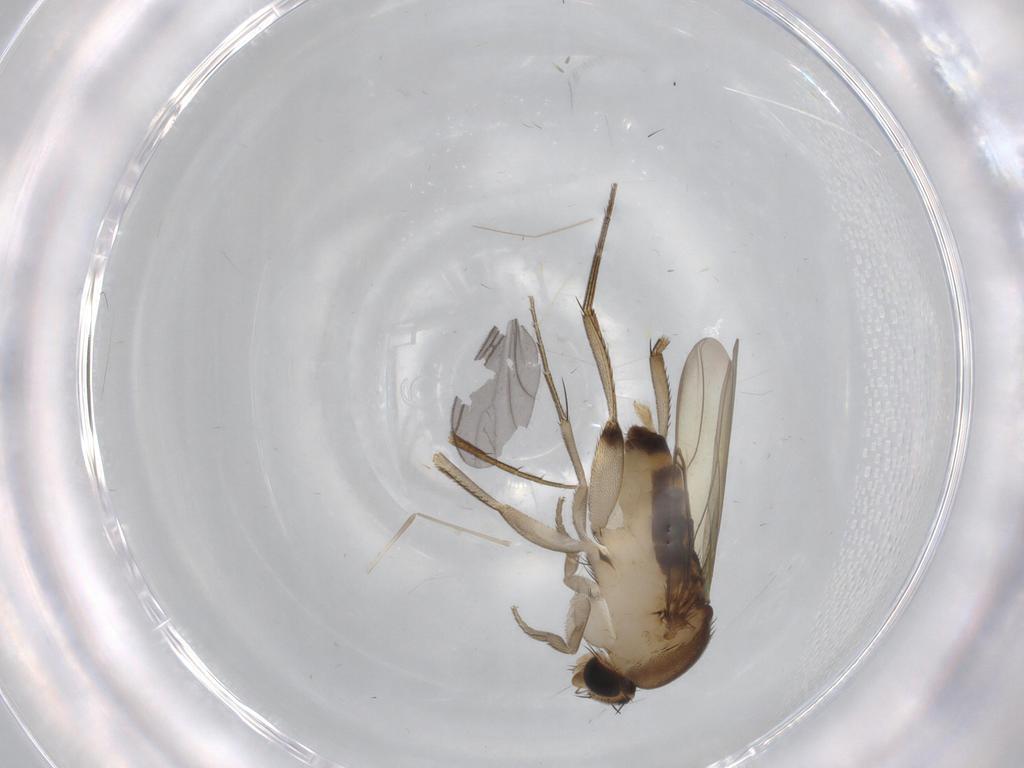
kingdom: Animalia
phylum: Arthropoda
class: Insecta
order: Diptera
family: Phoridae
